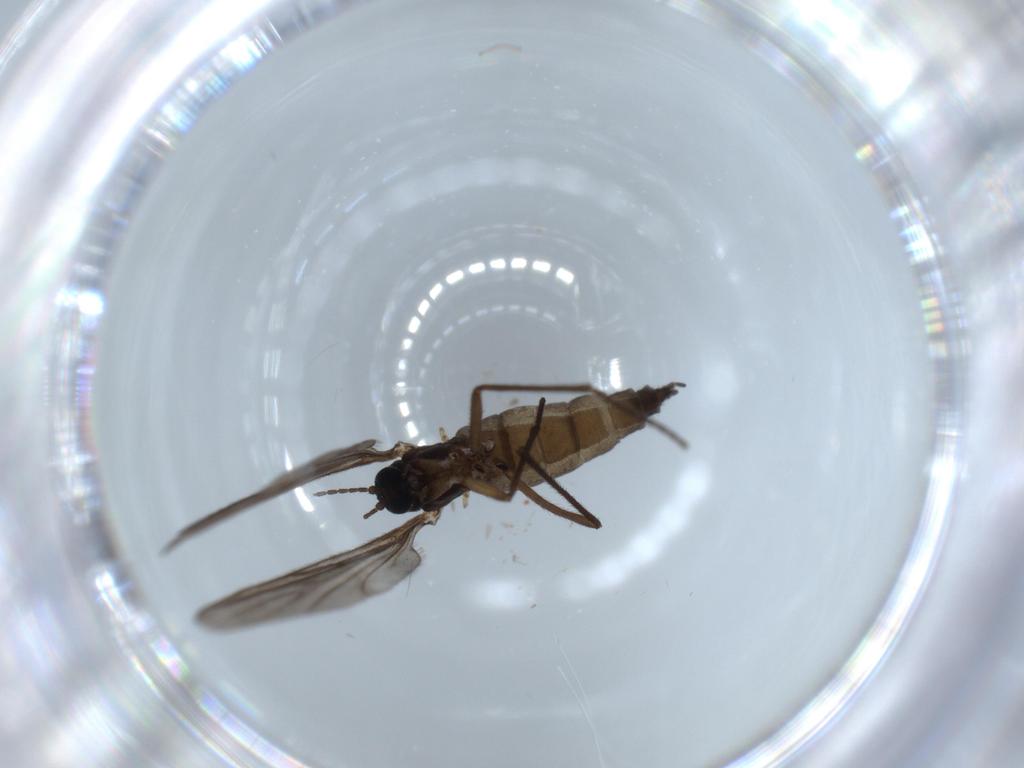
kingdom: Animalia
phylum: Arthropoda
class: Insecta
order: Diptera
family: Sciaridae
